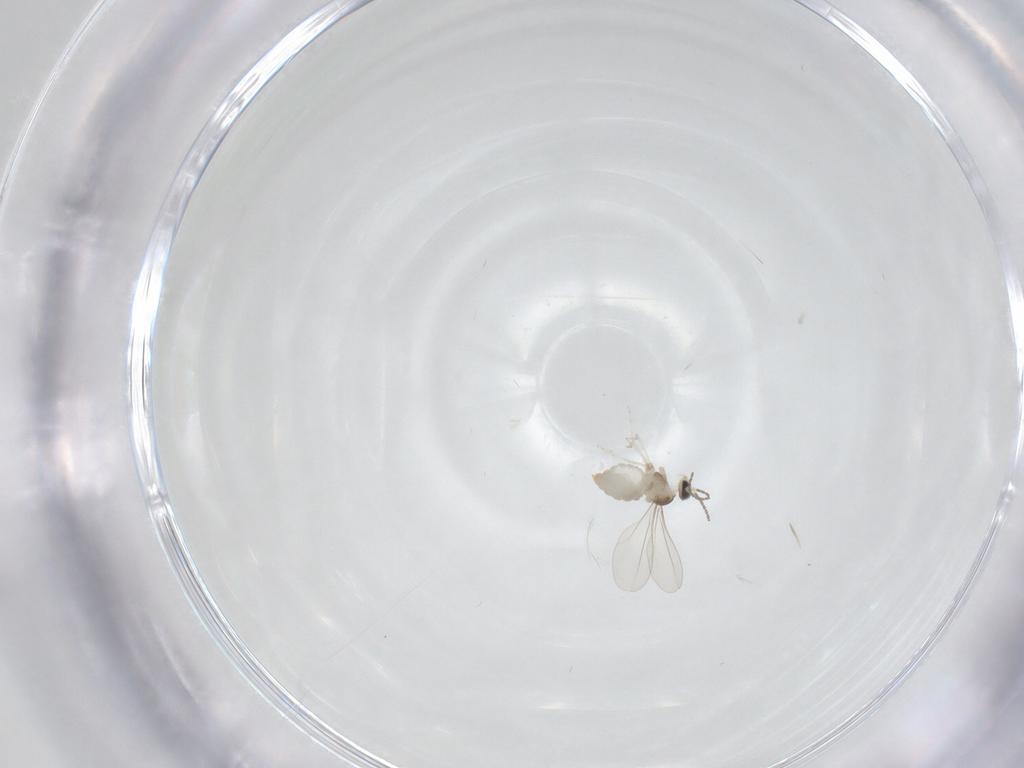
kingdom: Animalia
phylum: Arthropoda
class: Insecta
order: Diptera
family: Cecidomyiidae
